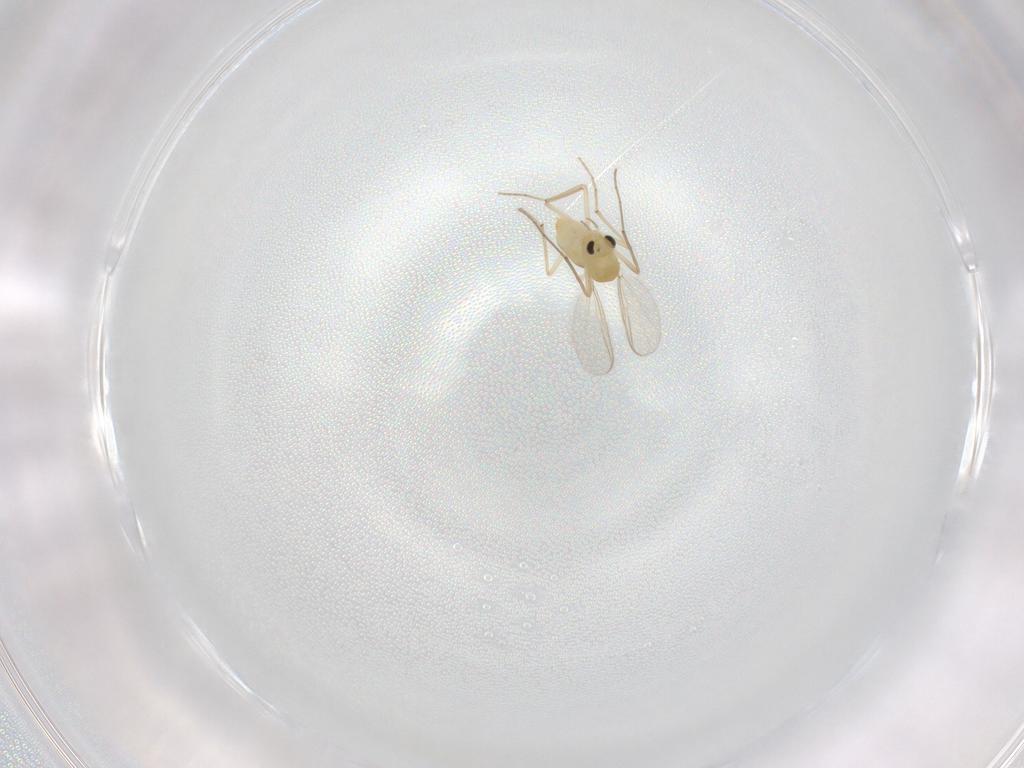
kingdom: Animalia
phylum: Arthropoda
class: Insecta
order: Diptera
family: Chironomidae
